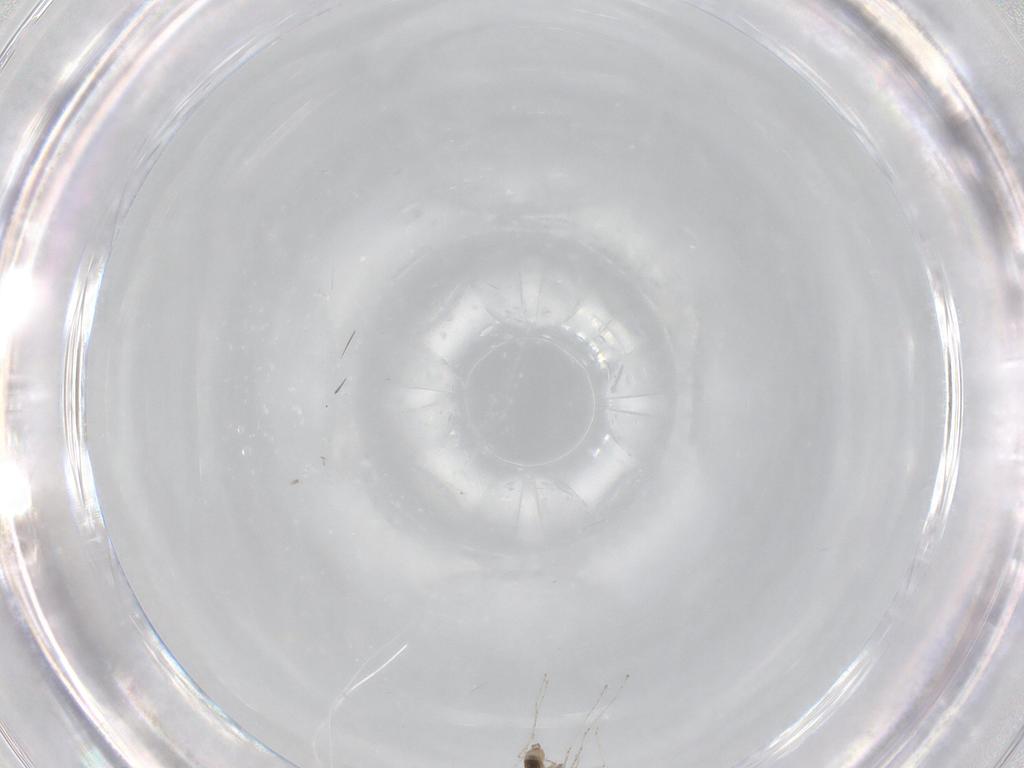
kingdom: Animalia
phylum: Arthropoda
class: Insecta
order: Diptera
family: Cecidomyiidae
